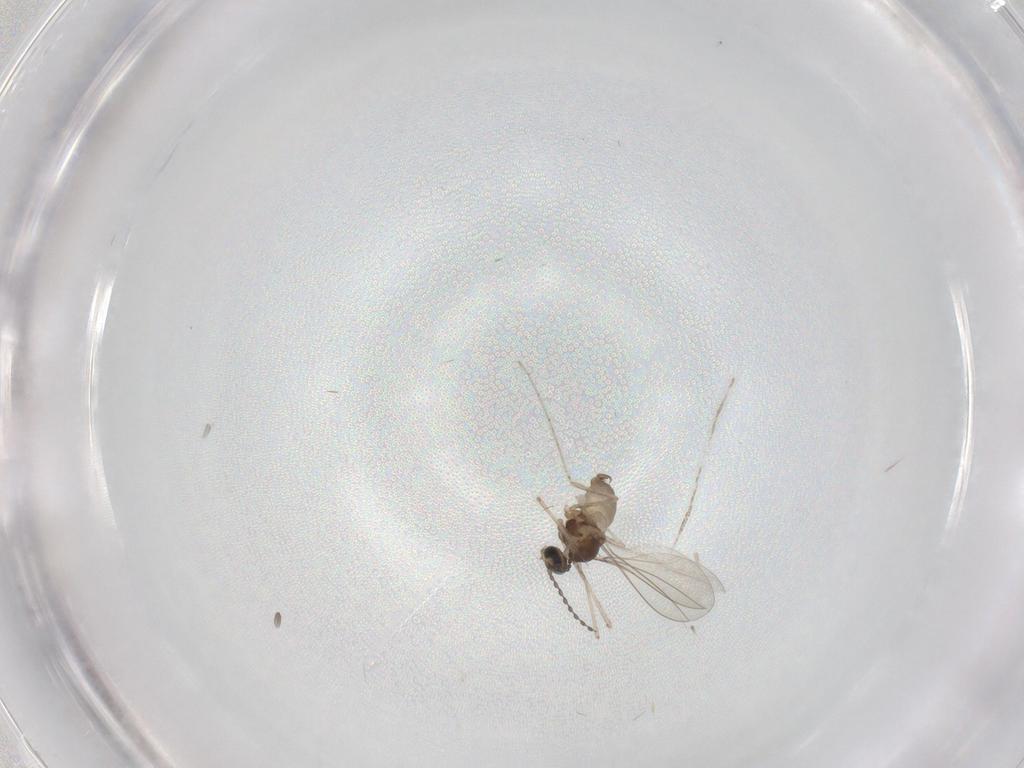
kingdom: Animalia
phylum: Arthropoda
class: Insecta
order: Diptera
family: Cecidomyiidae
